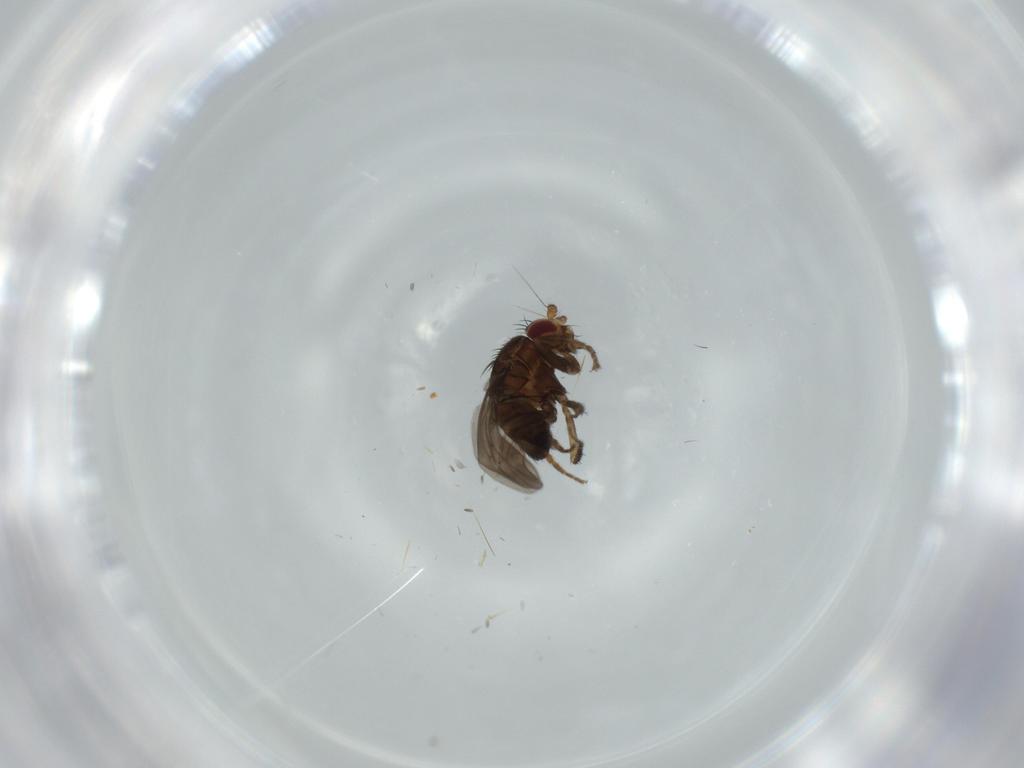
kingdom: Animalia
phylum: Arthropoda
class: Insecta
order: Diptera
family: Sphaeroceridae
